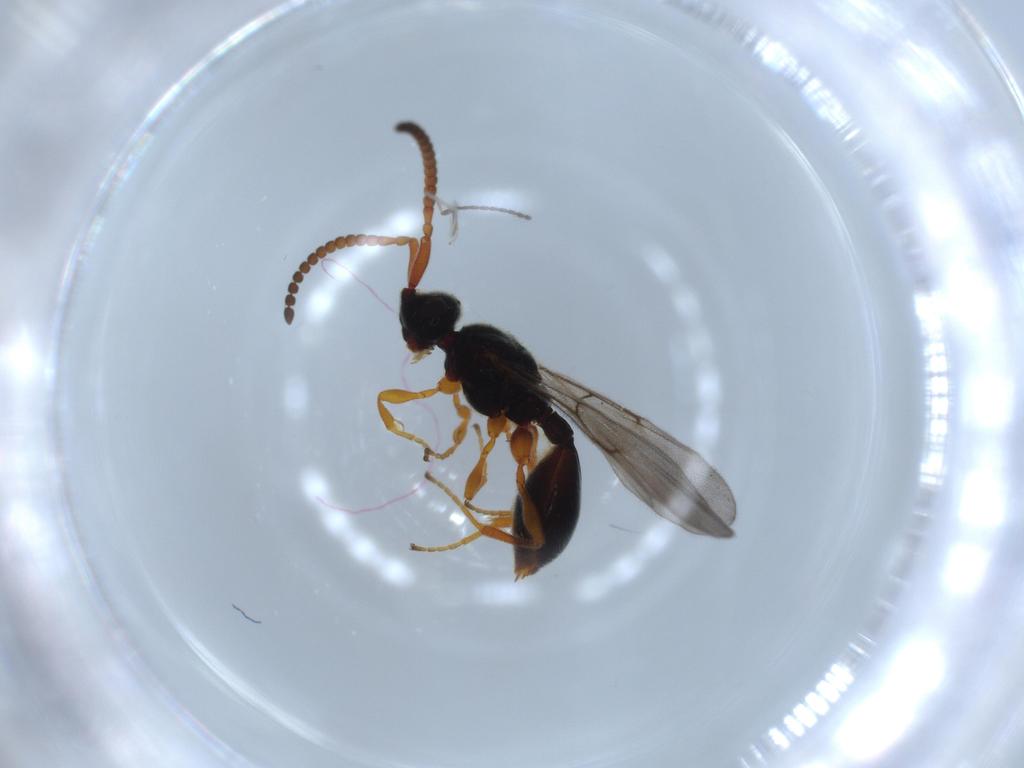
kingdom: Animalia
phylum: Arthropoda
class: Insecta
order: Hymenoptera
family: Diapriidae
